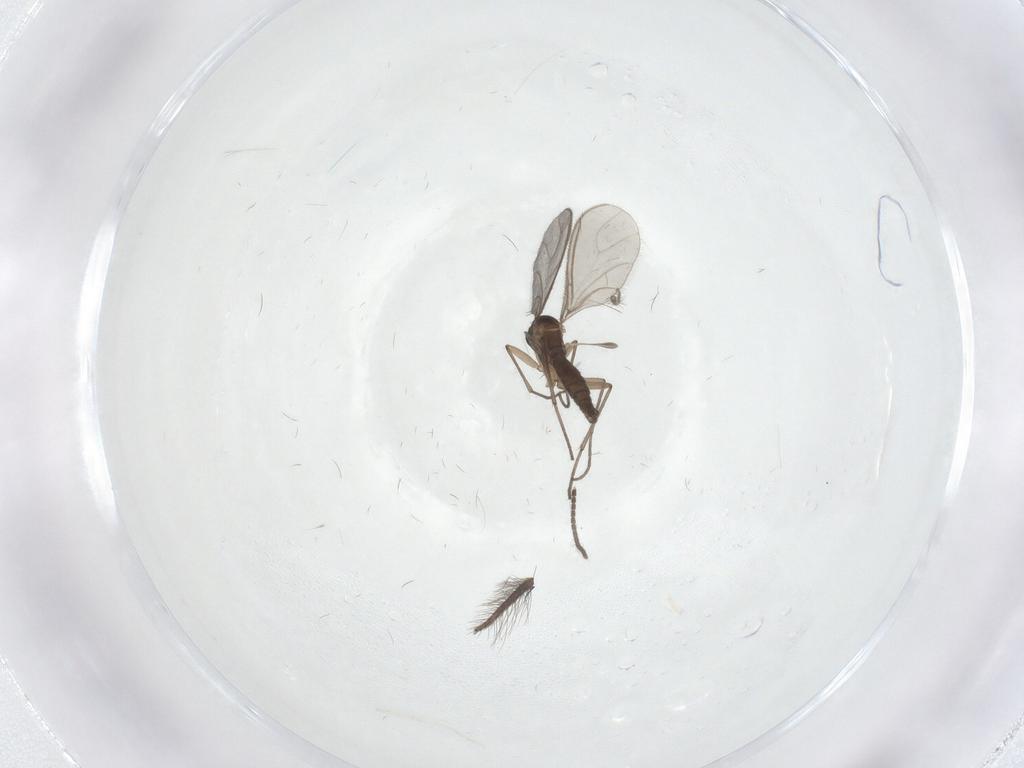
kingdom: Animalia
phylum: Arthropoda
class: Insecta
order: Diptera
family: Sciaridae
